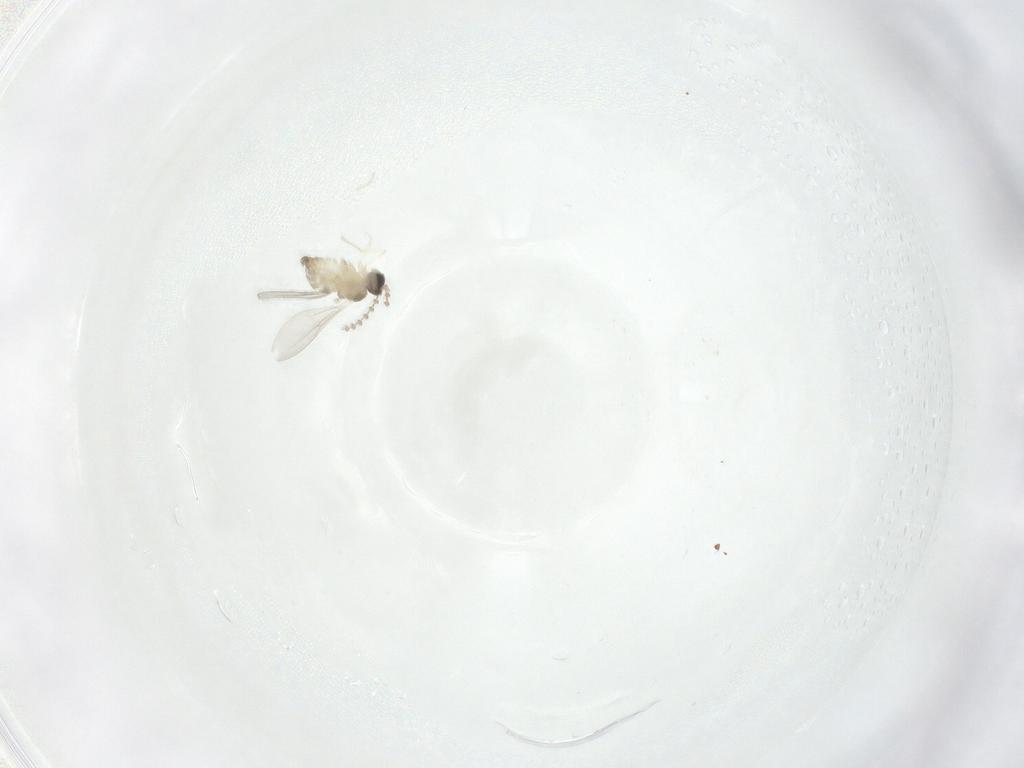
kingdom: Animalia
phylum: Arthropoda
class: Insecta
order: Diptera
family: Cecidomyiidae
